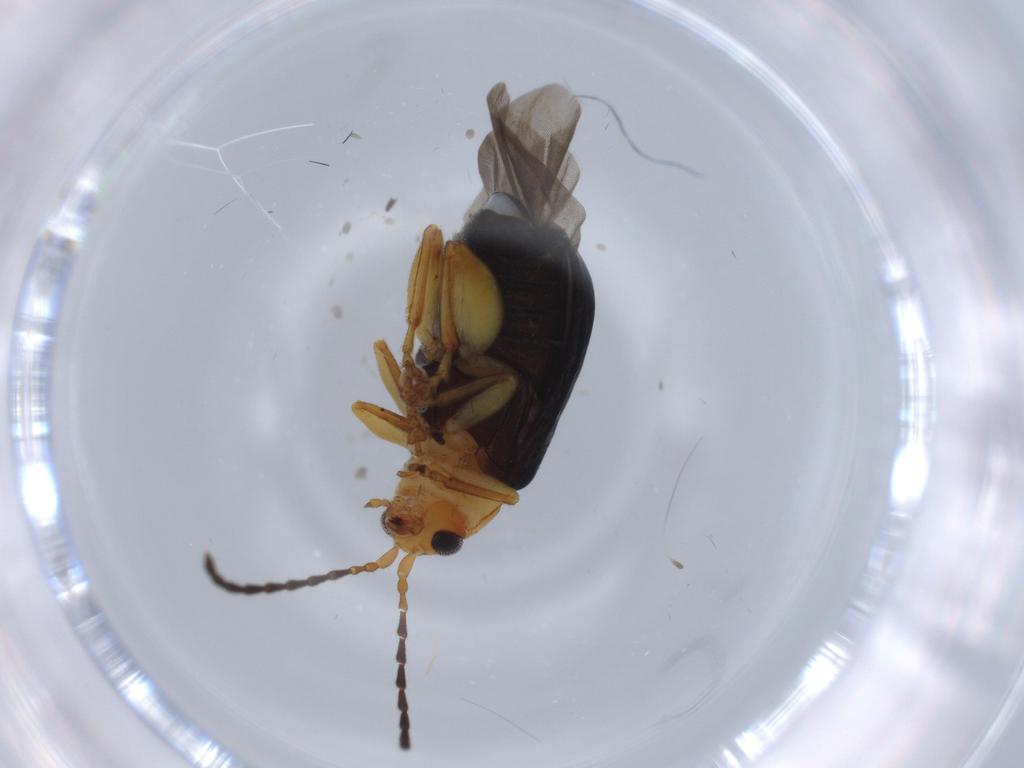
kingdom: Animalia
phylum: Arthropoda
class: Insecta
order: Coleoptera
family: Chrysomelidae
